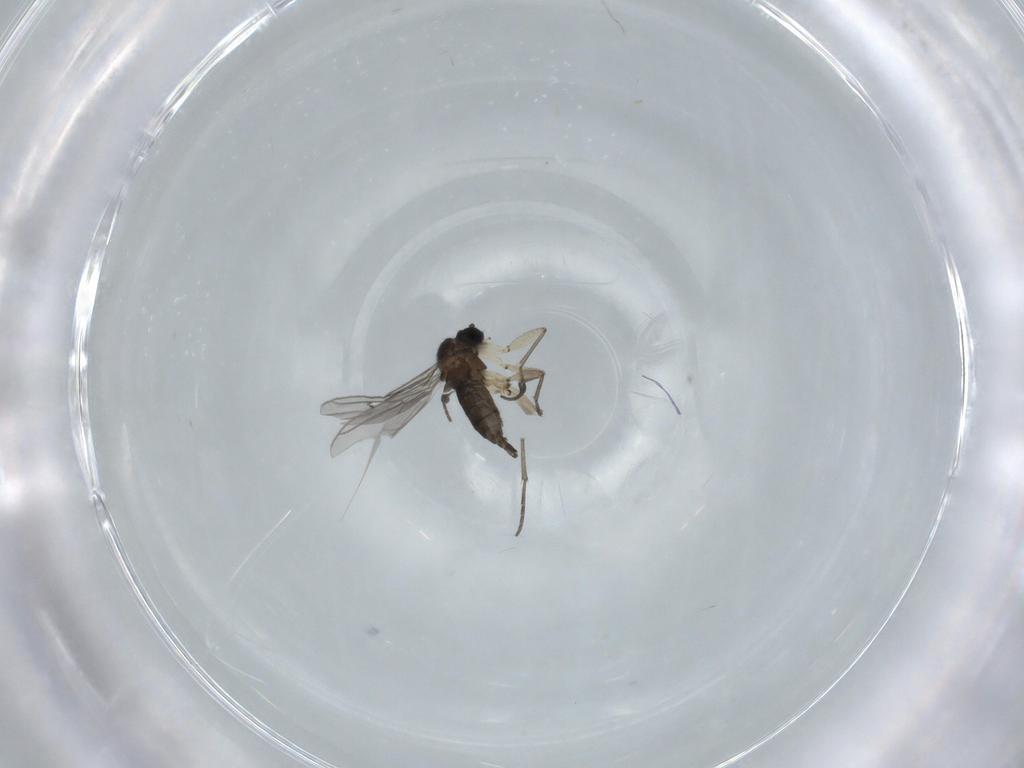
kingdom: Animalia
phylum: Arthropoda
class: Insecta
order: Diptera
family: Sciaridae
